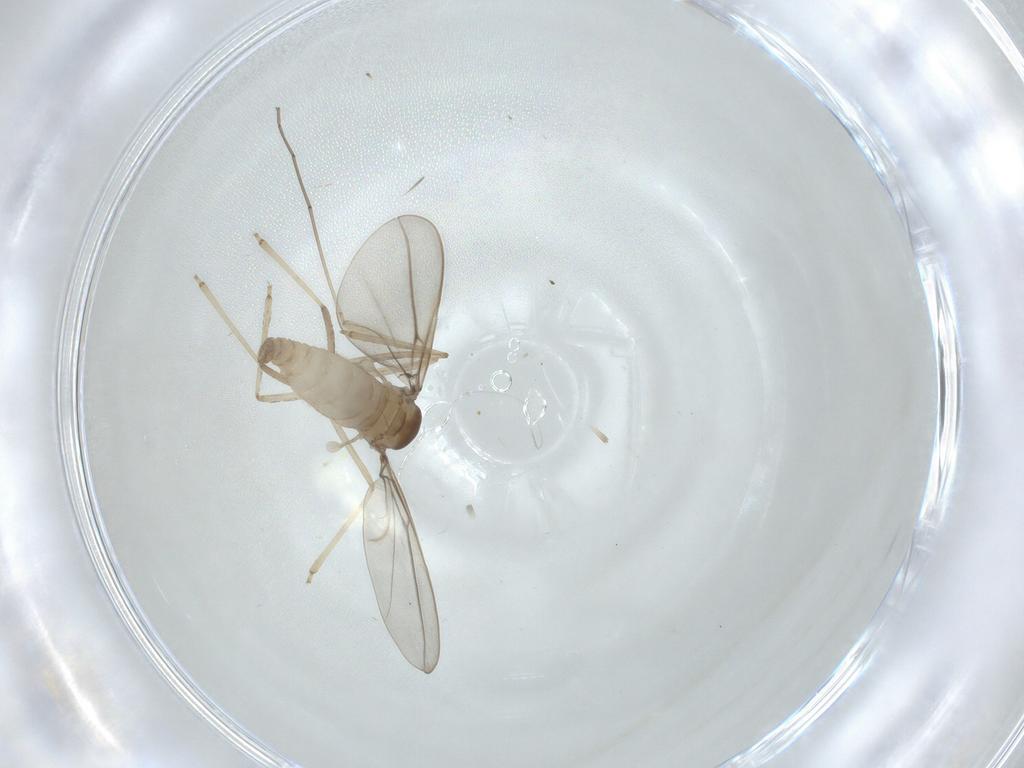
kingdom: Animalia
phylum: Arthropoda
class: Insecta
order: Diptera
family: Cecidomyiidae
